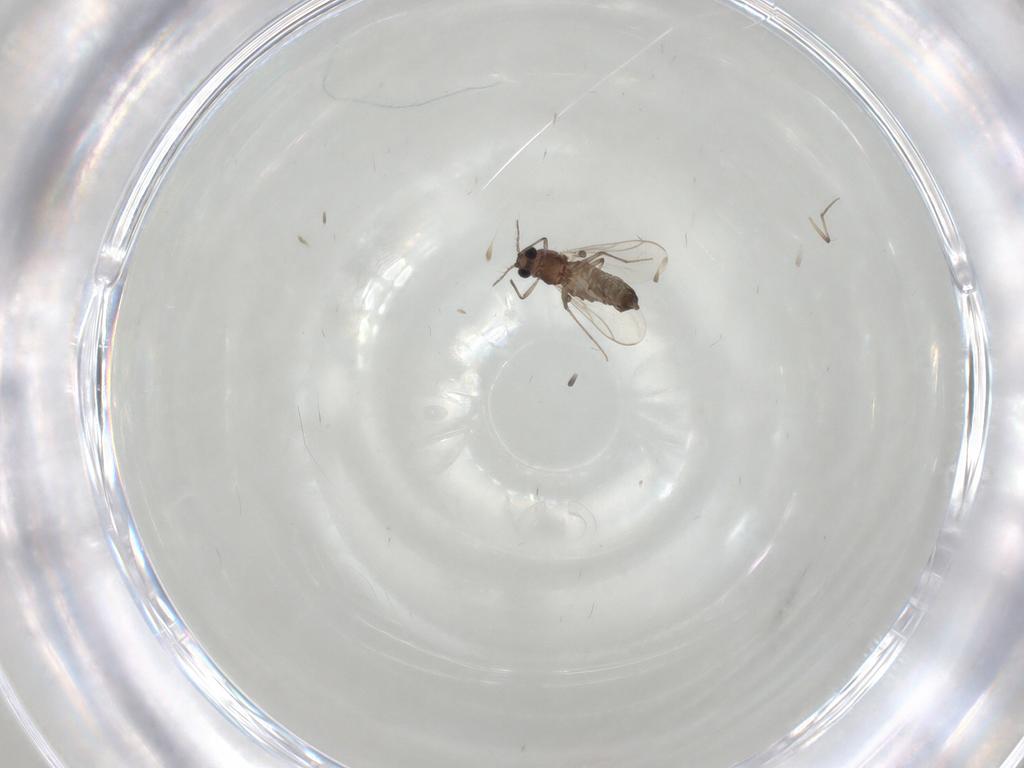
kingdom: Animalia
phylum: Arthropoda
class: Insecta
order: Diptera
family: Chironomidae
